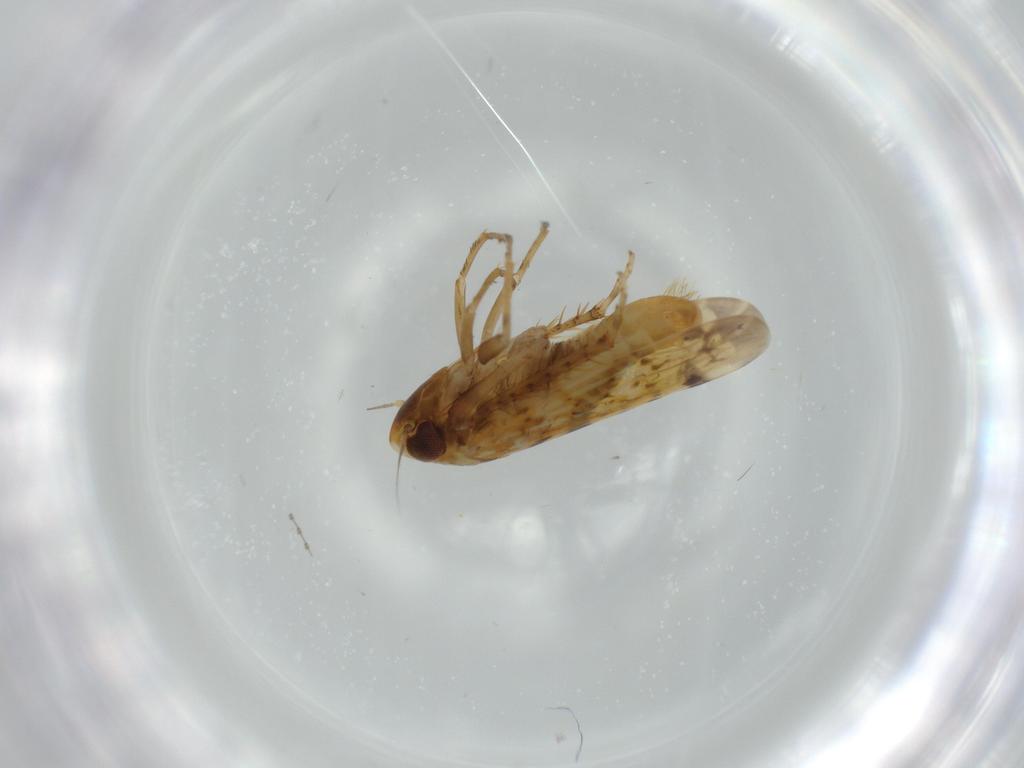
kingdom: Animalia
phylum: Arthropoda
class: Insecta
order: Hemiptera
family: Cicadellidae
